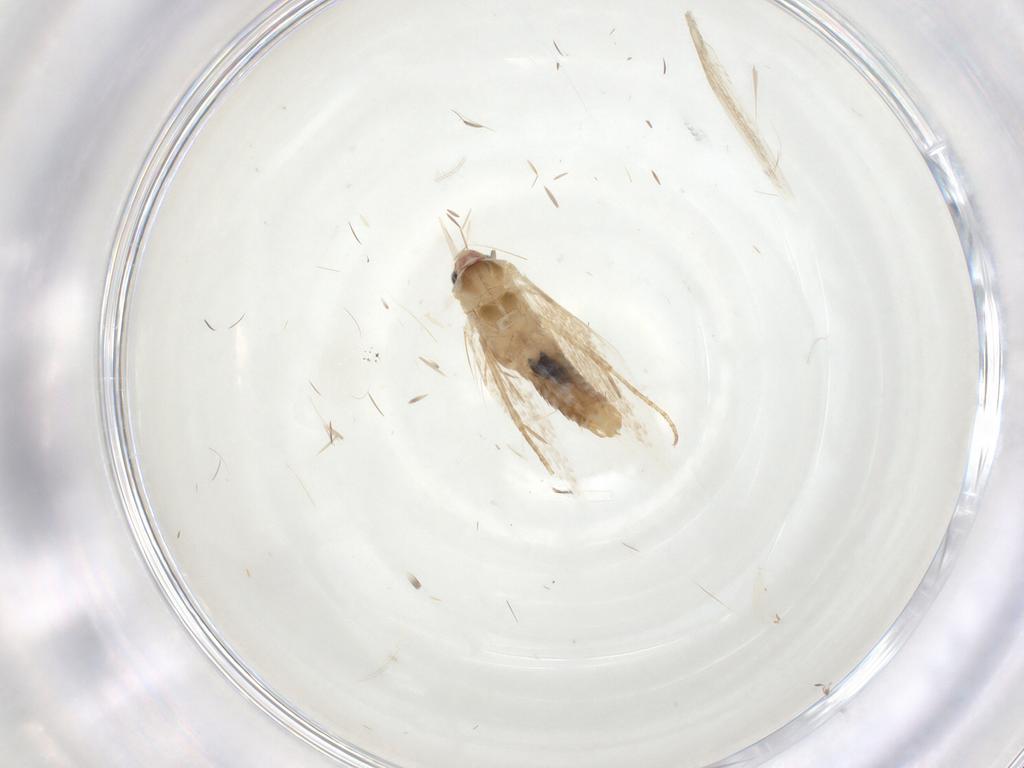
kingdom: Animalia
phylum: Arthropoda
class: Insecta
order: Lepidoptera
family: Bucculatricidae
